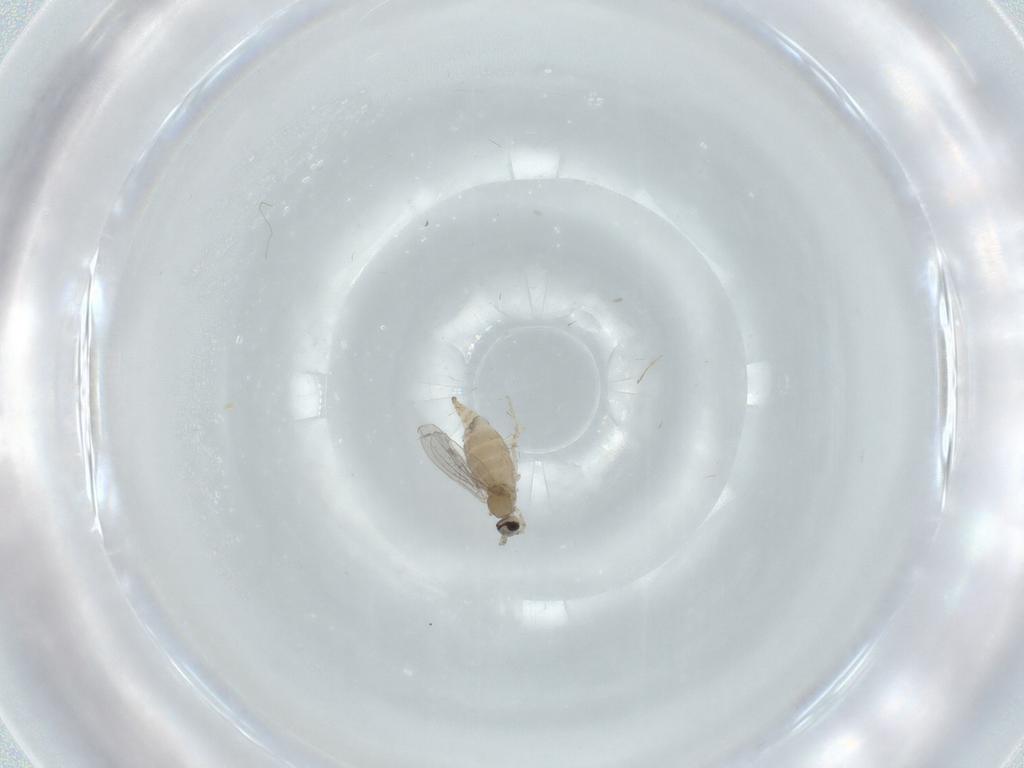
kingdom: Animalia
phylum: Arthropoda
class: Insecta
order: Diptera
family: Cecidomyiidae
